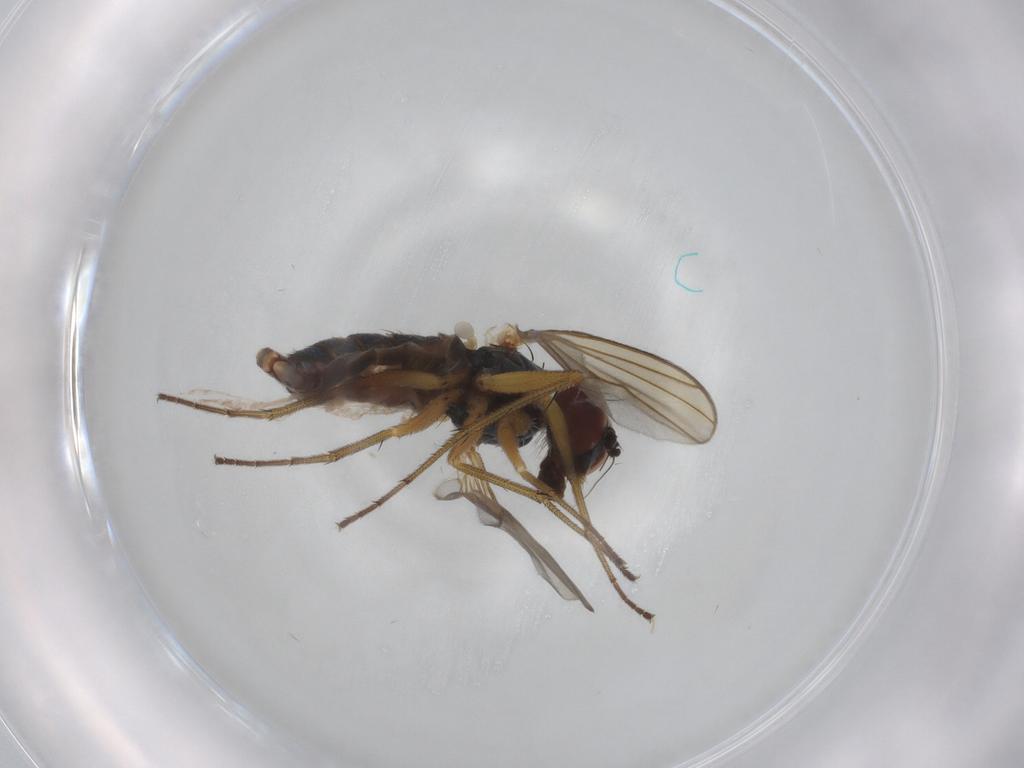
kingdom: Animalia
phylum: Arthropoda
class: Insecta
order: Diptera
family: Dolichopodidae
